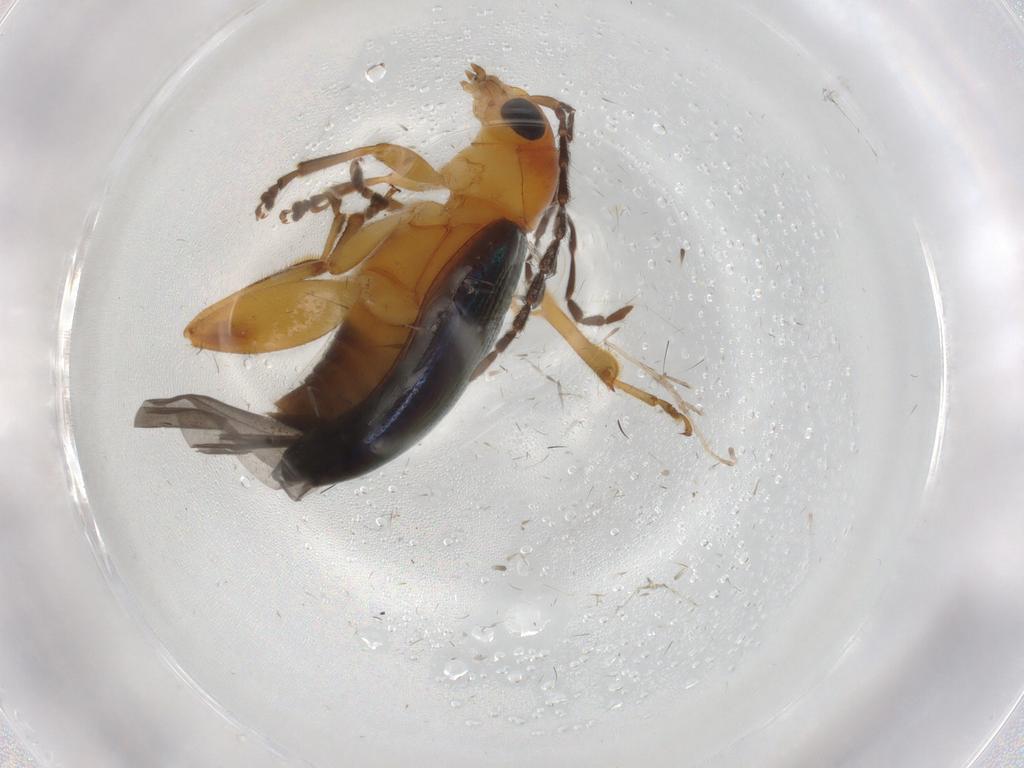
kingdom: Animalia
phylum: Arthropoda
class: Insecta
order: Coleoptera
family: Chrysomelidae
